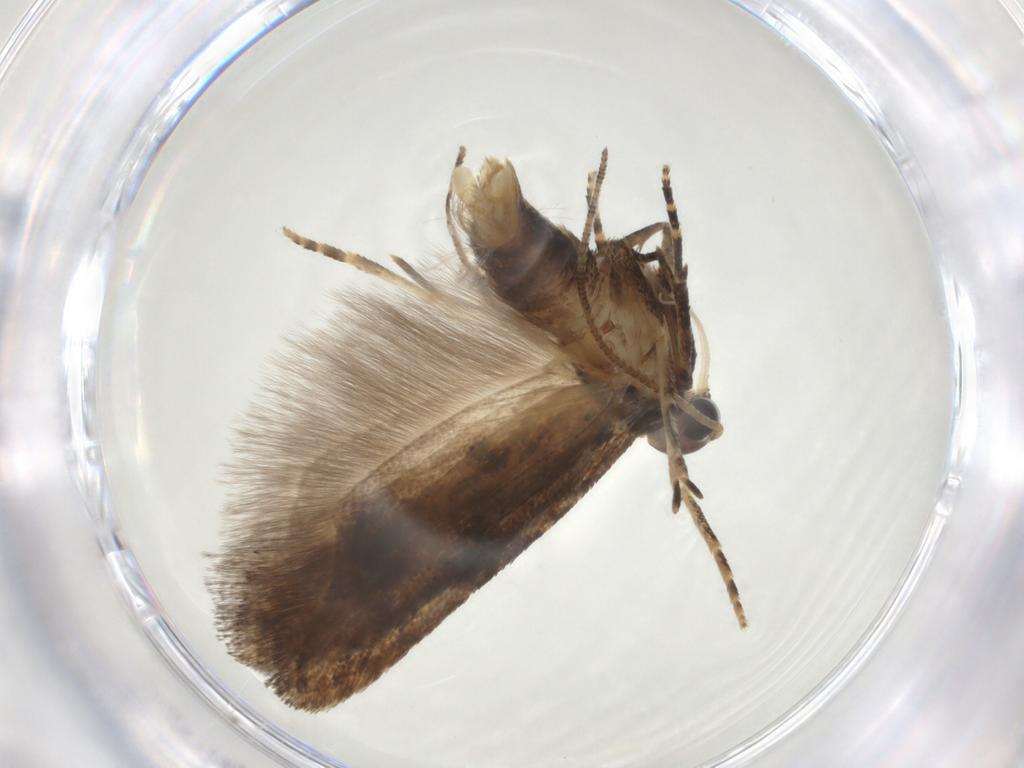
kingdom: Animalia
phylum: Arthropoda
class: Insecta
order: Lepidoptera
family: Gelechiidae
